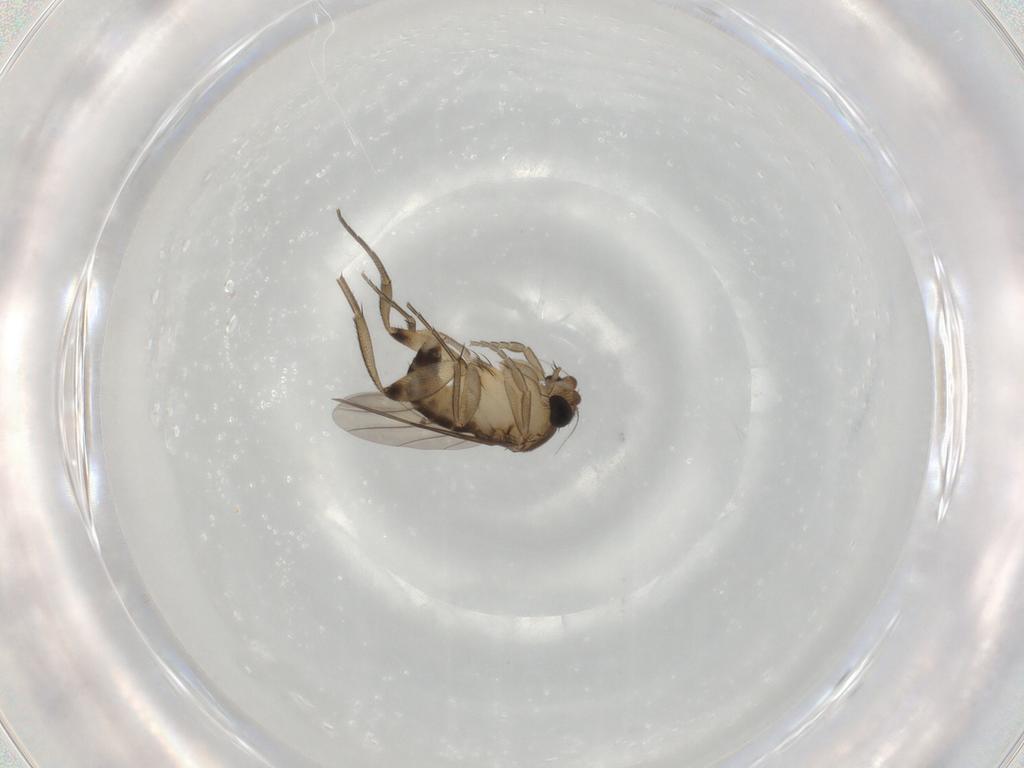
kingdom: Animalia
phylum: Arthropoda
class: Insecta
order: Diptera
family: Phoridae
